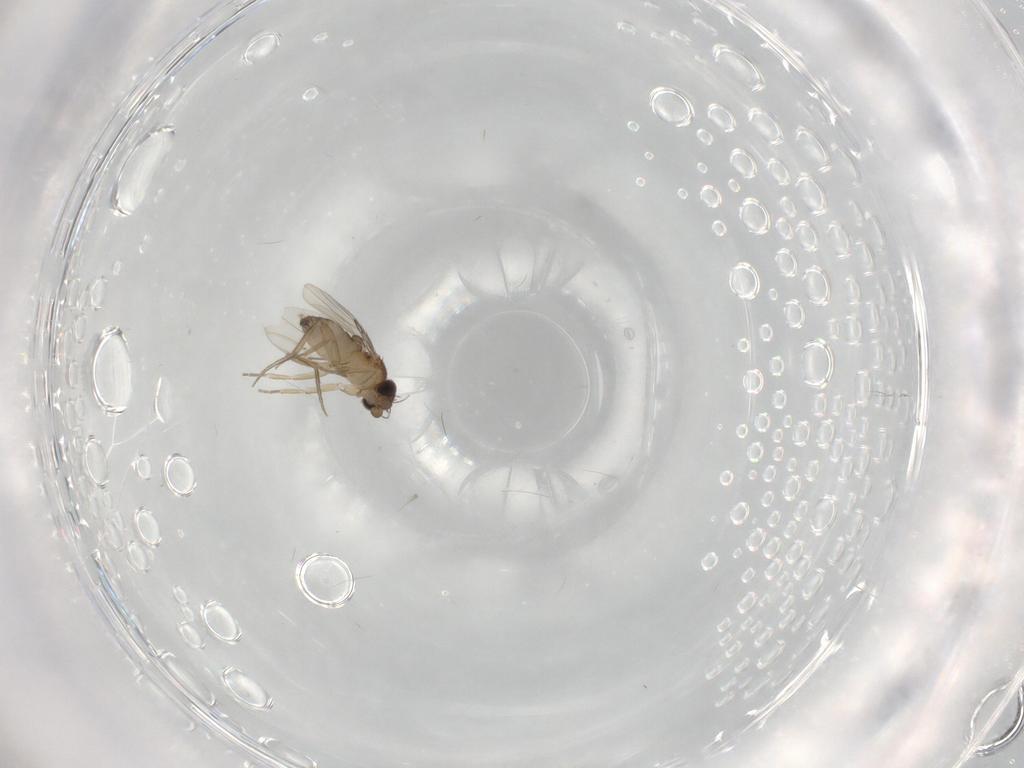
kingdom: Animalia
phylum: Arthropoda
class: Insecta
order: Diptera
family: Phoridae
